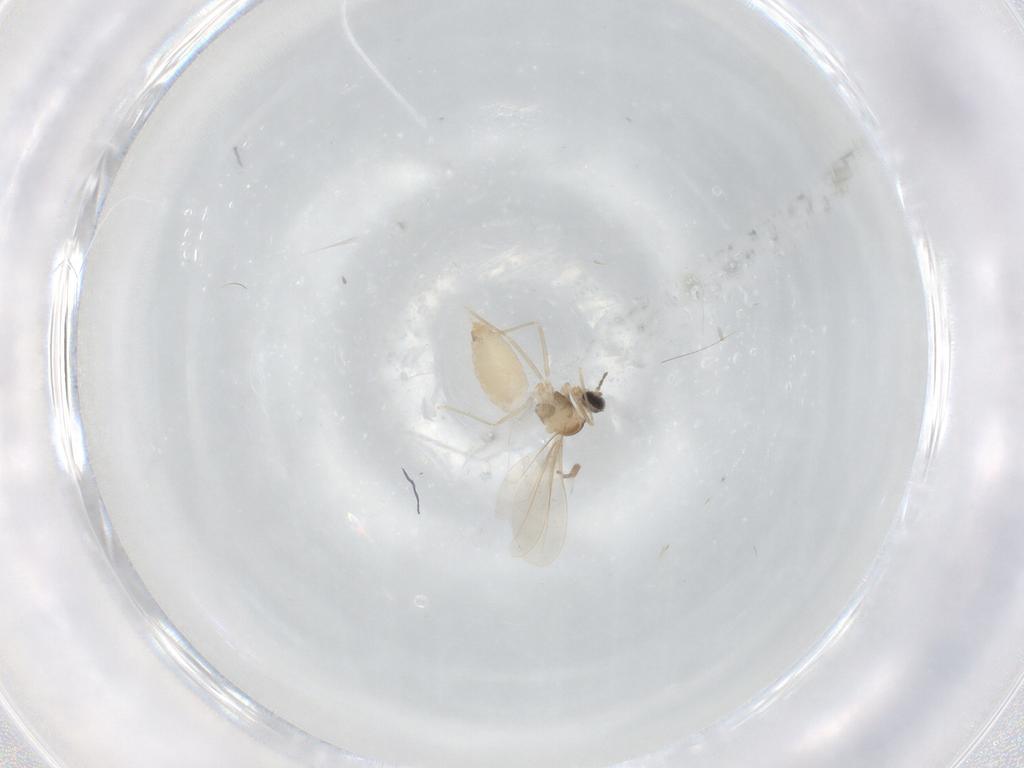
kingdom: Animalia
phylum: Arthropoda
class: Insecta
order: Diptera
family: Cecidomyiidae
